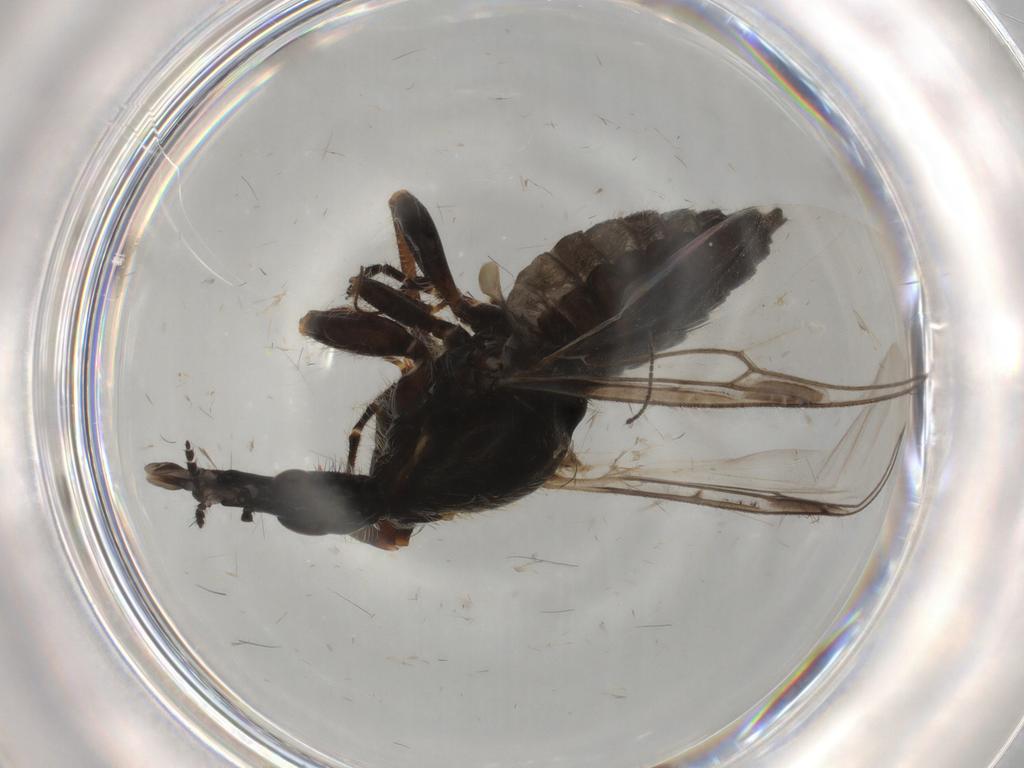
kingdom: Animalia
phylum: Arthropoda
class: Insecta
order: Diptera
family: Bibionidae
